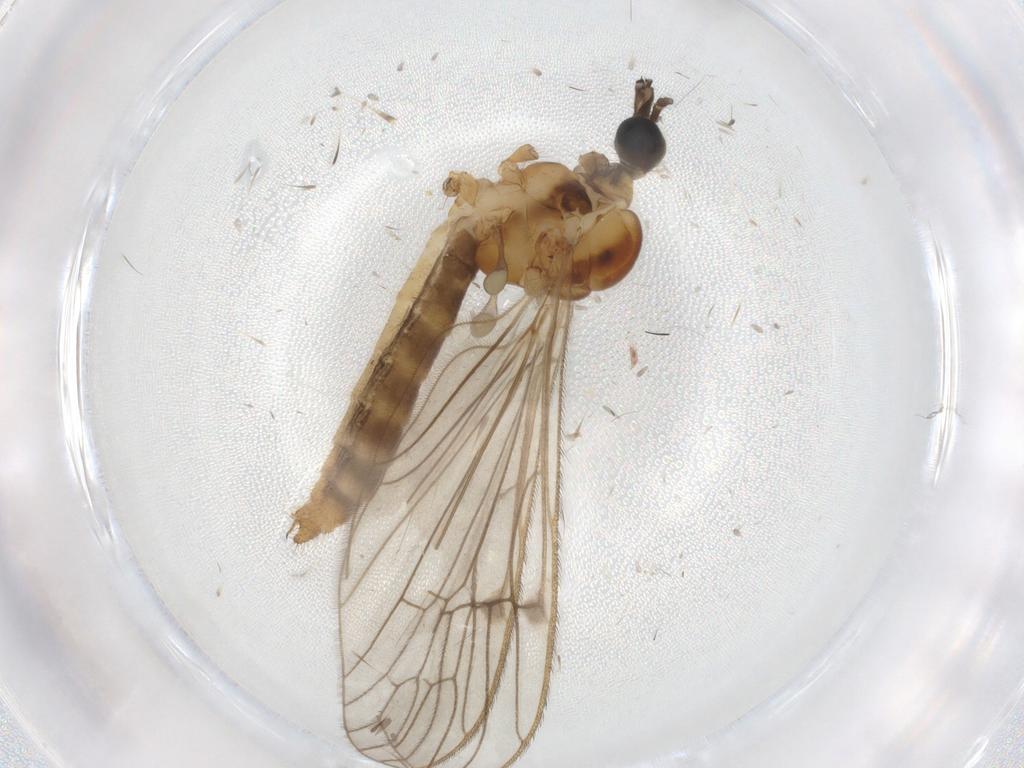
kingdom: Animalia
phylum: Arthropoda
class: Insecta
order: Diptera
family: Limoniidae
